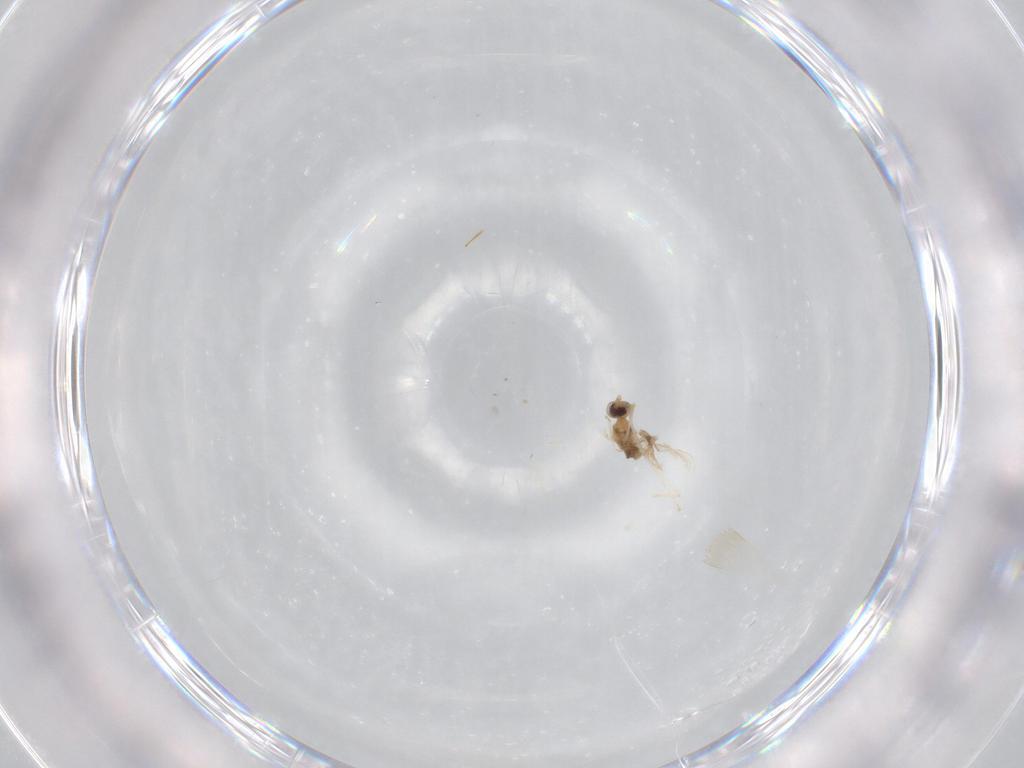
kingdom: Animalia
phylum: Arthropoda
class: Insecta
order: Diptera
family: Scatopsidae
